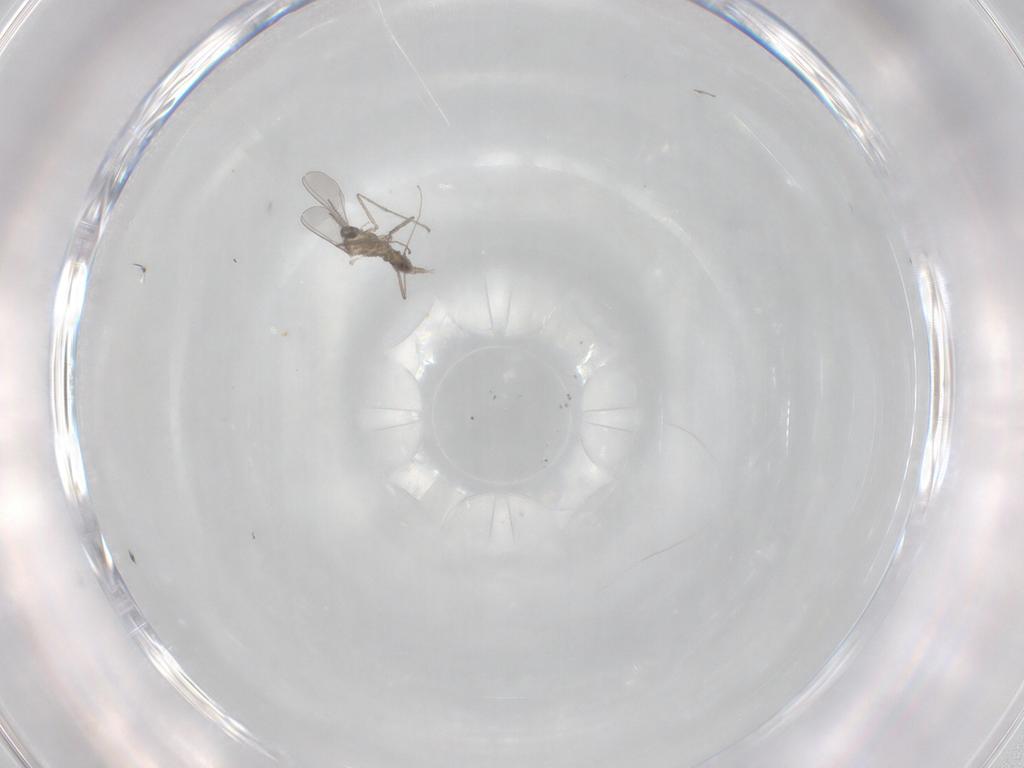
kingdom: Animalia
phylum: Arthropoda
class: Insecta
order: Diptera
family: Cecidomyiidae
